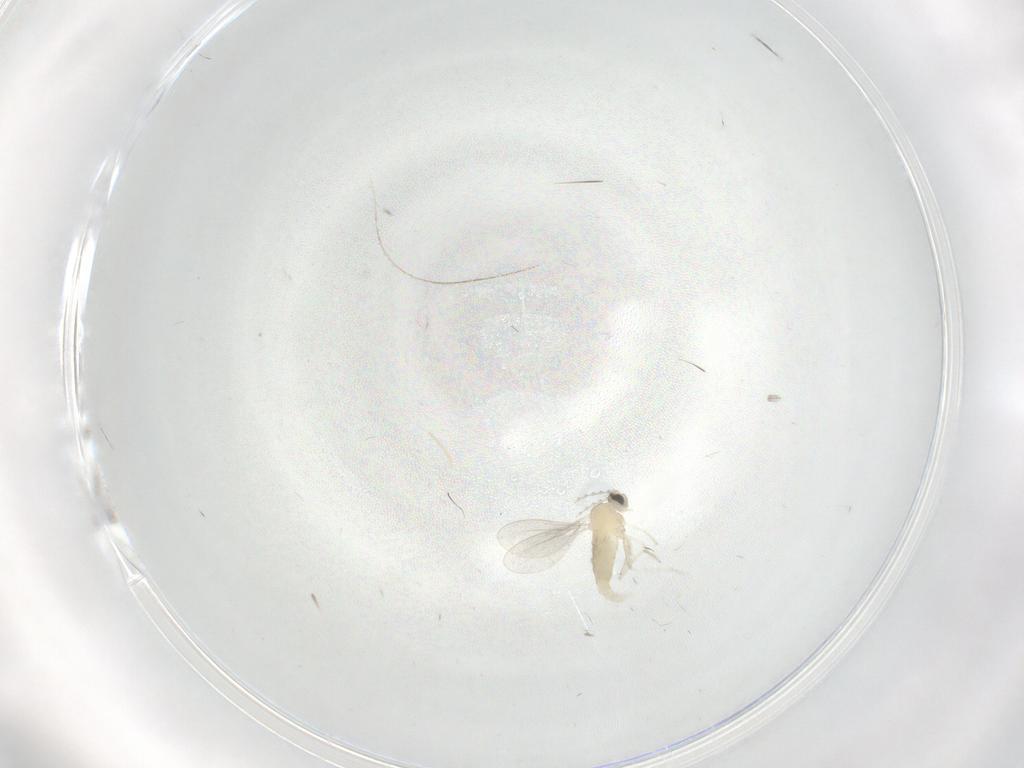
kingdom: Animalia
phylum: Arthropoda
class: Insecta
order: Diptera
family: Cecidomyiidae
